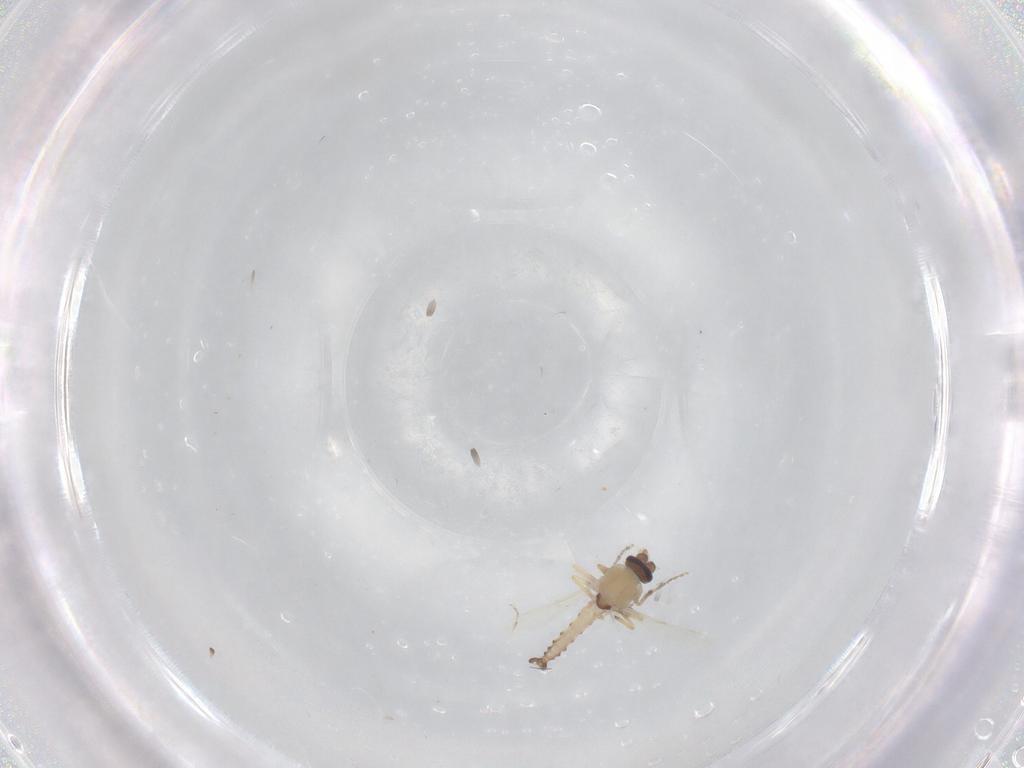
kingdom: Animalia
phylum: Arthropoda
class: Insecta
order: Diptera
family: Ceratopogonidae
